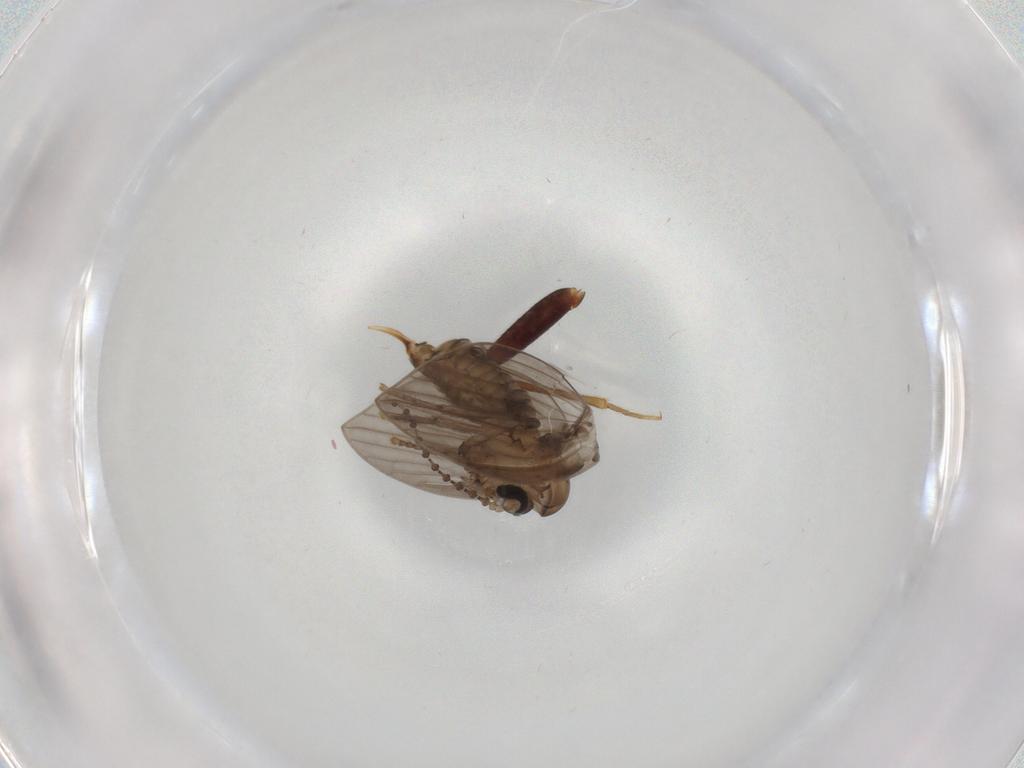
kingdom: Animalia
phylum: Arthropoda
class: Insecta
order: Diptera
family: Psychodidae
